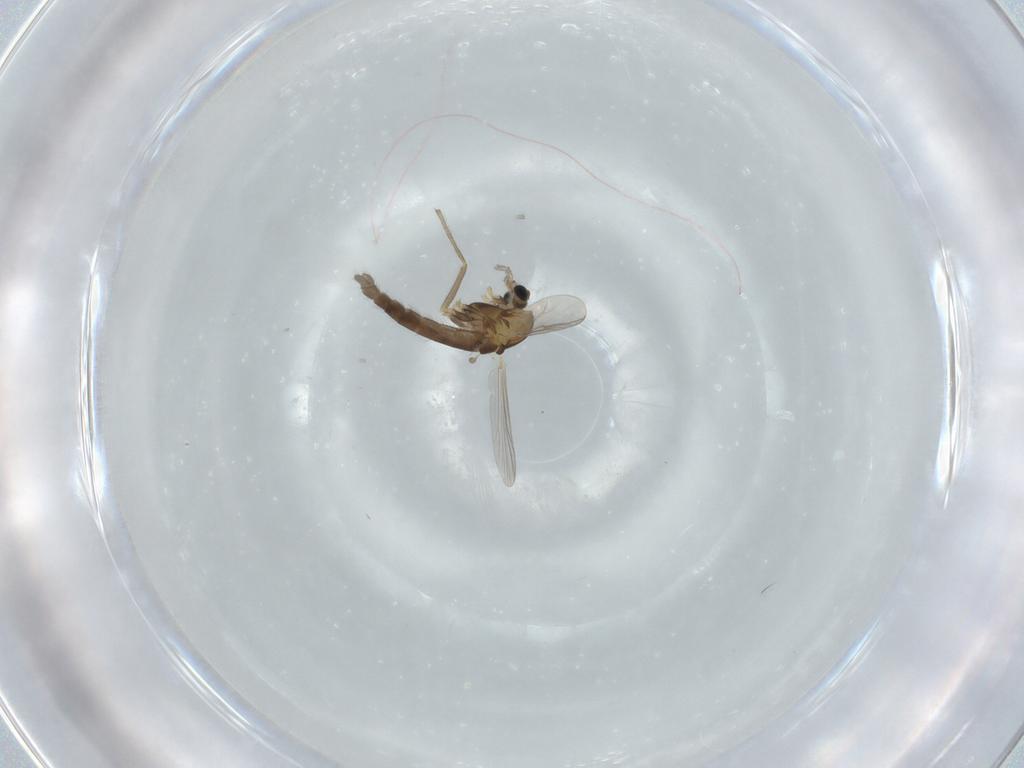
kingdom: Animalia
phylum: Arthropoda
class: Insecta
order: Diptera
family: Chironomidae
